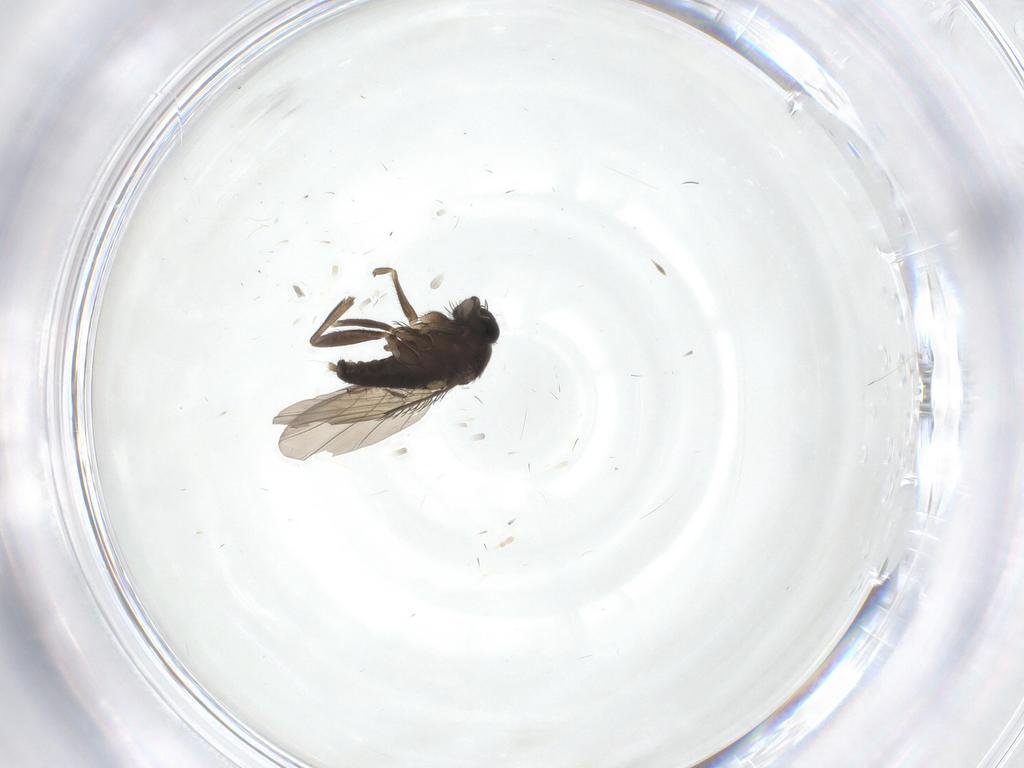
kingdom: Animalia
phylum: Arthropoda
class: Insecta
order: Diptera
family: Phoridae
